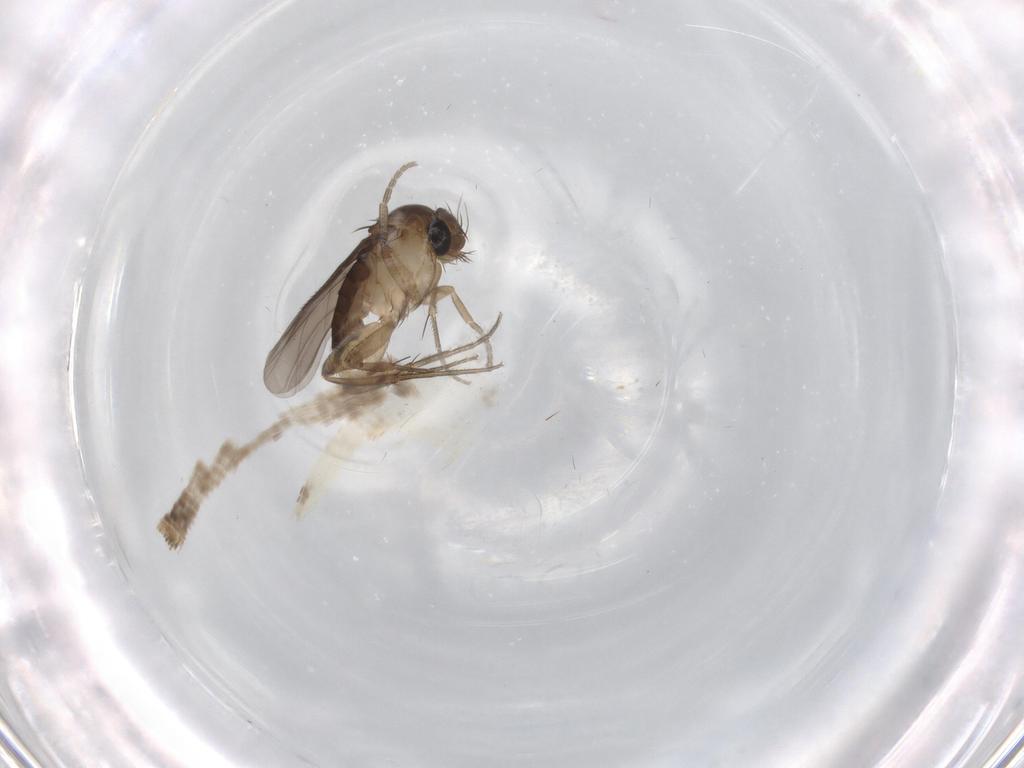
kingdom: Animalia
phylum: Arthropoda
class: Insecta
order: Diptera
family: Phoridae
